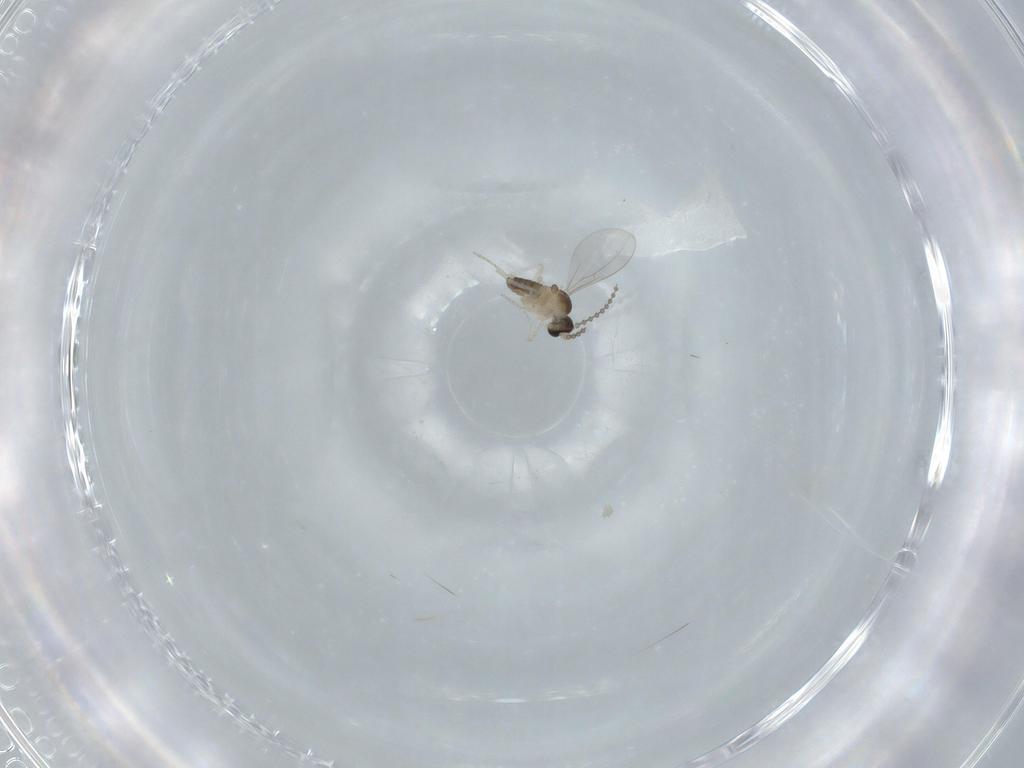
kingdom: Animalia
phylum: Arthropoda
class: Insecta
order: Diptera
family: Cecidomyiidae
